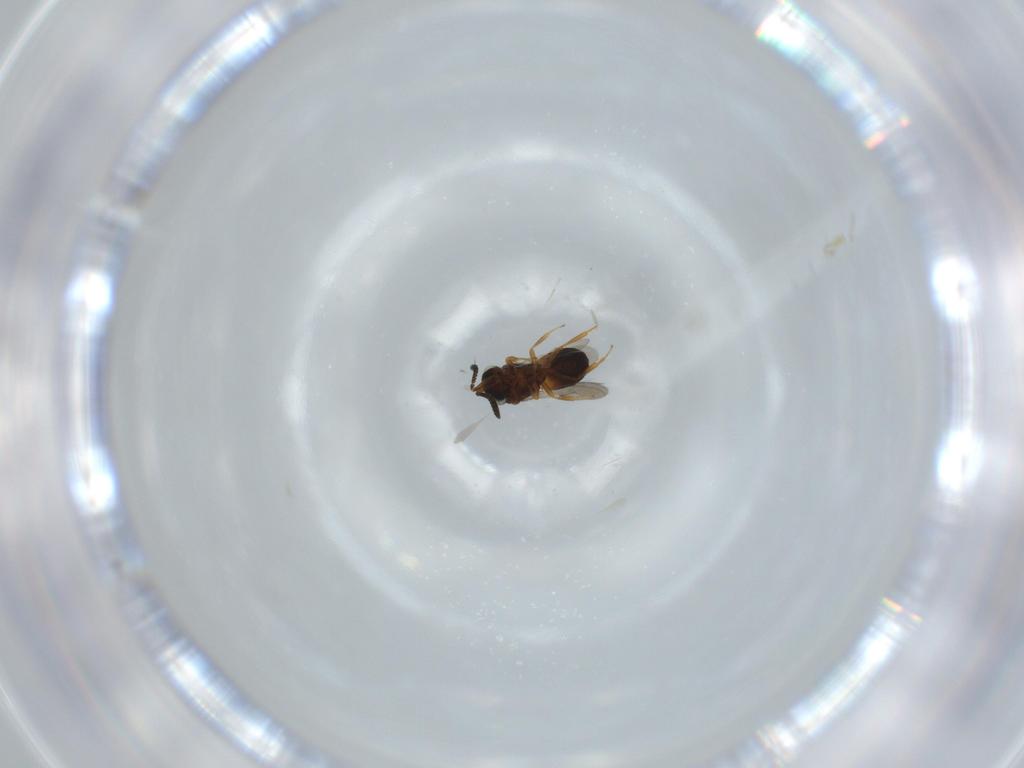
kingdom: Animalia
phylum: Arthropoda
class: Insecta
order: Hymenoptera
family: Scelionidae
